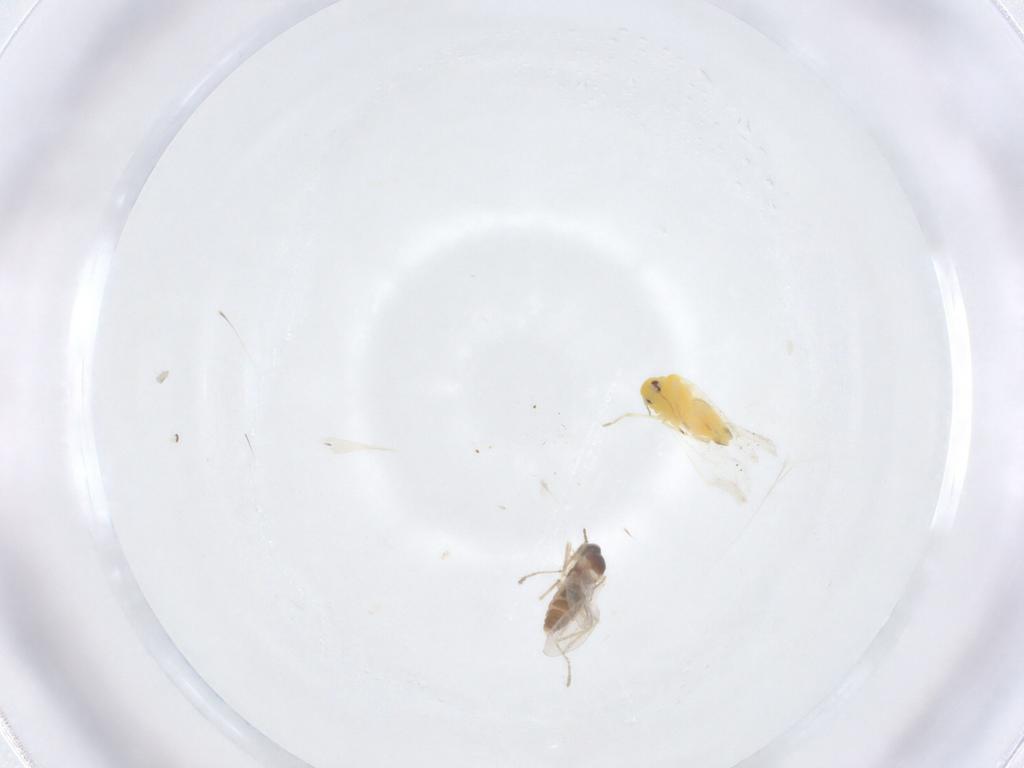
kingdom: Animalia
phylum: Arthropoda
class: Insecta
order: Hemiptera
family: Aleyrodidae
